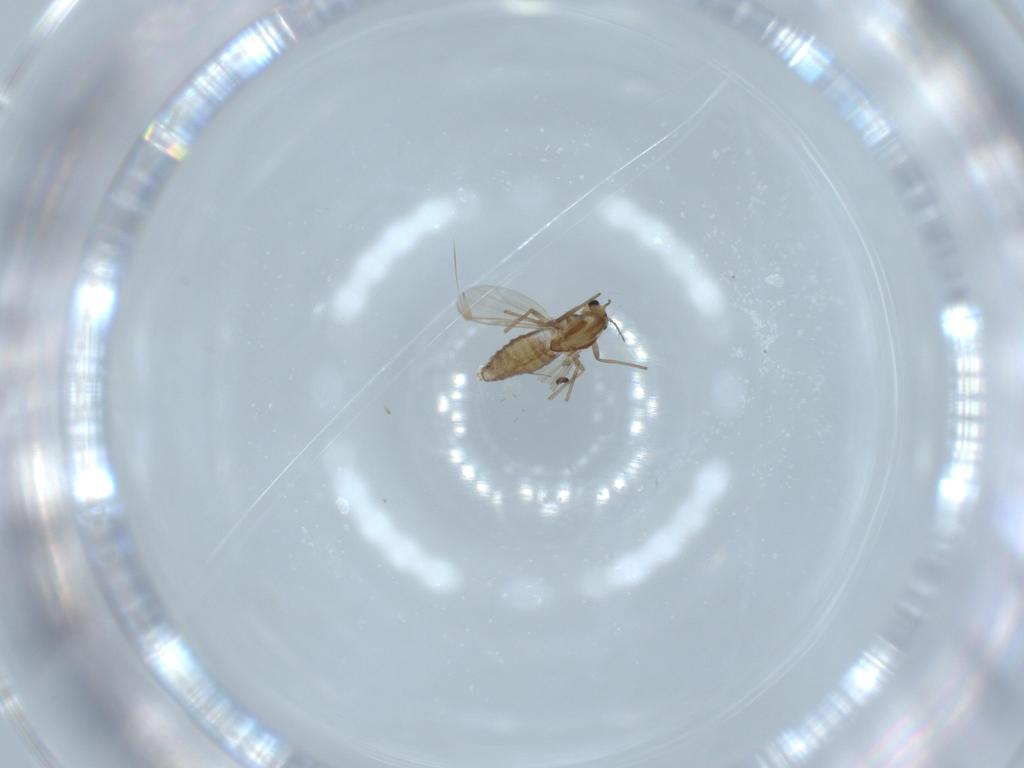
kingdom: Animalia
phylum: Arthropoda
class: Insecta
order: Diptera
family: Chironomidae
